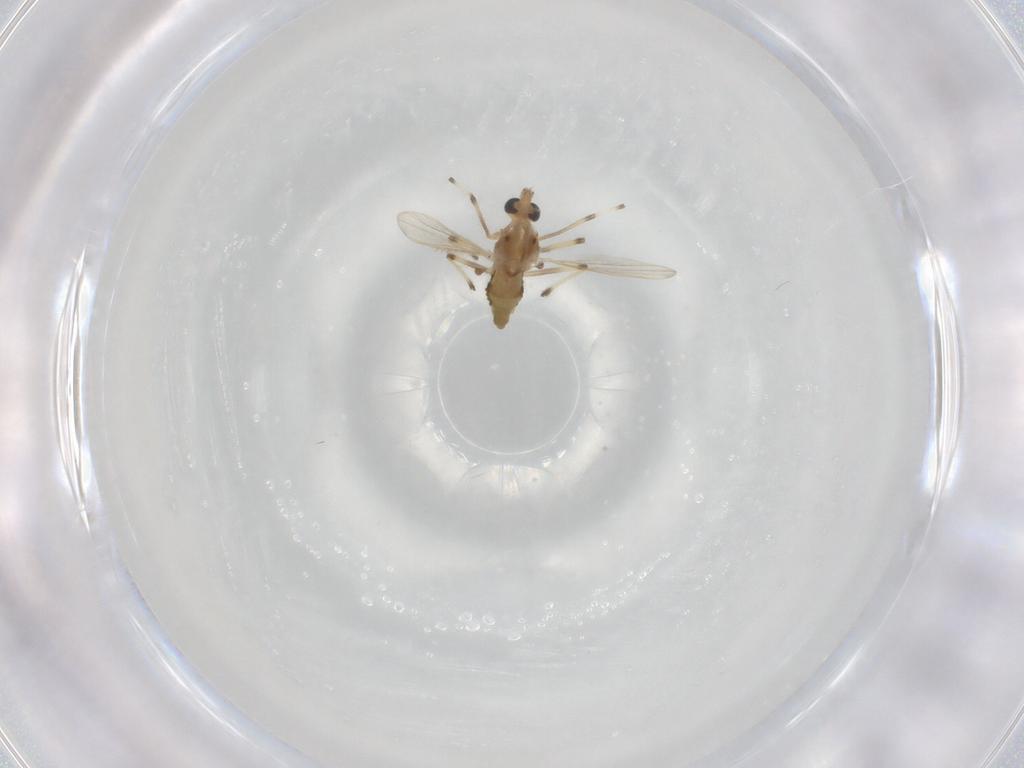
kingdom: Animalia
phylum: Arthropoda
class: Insecta
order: Diptera
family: Chironomidae
